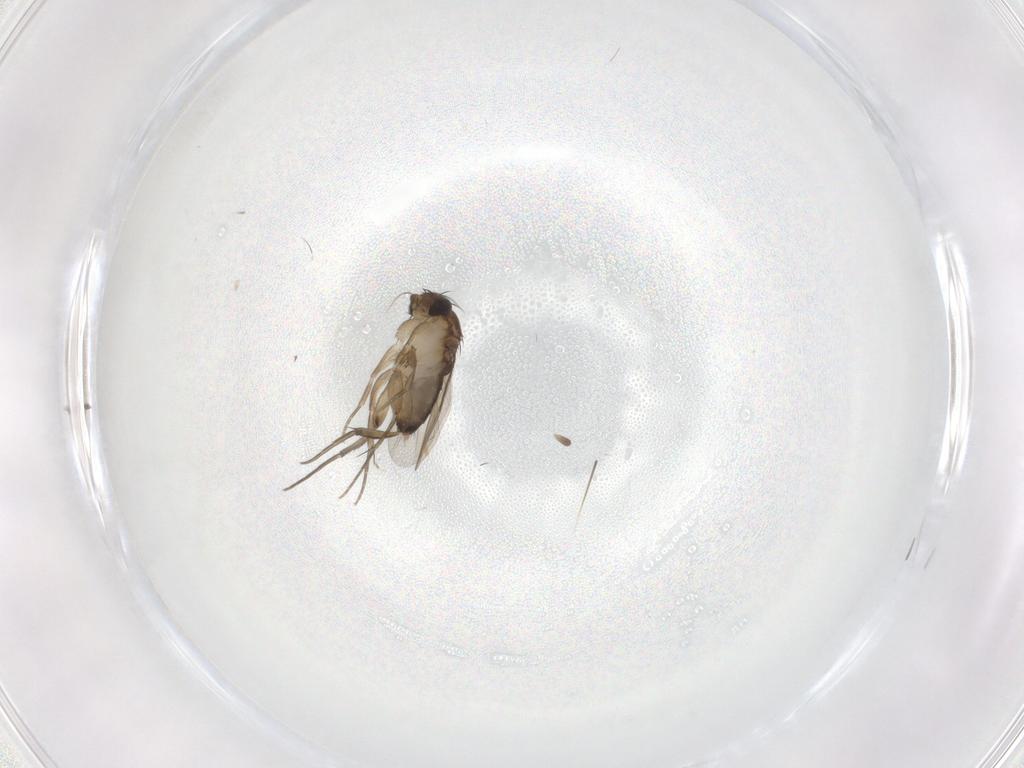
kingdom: Animalia
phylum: Arthropoda
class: Insecta
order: Diptera
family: Phoridae
